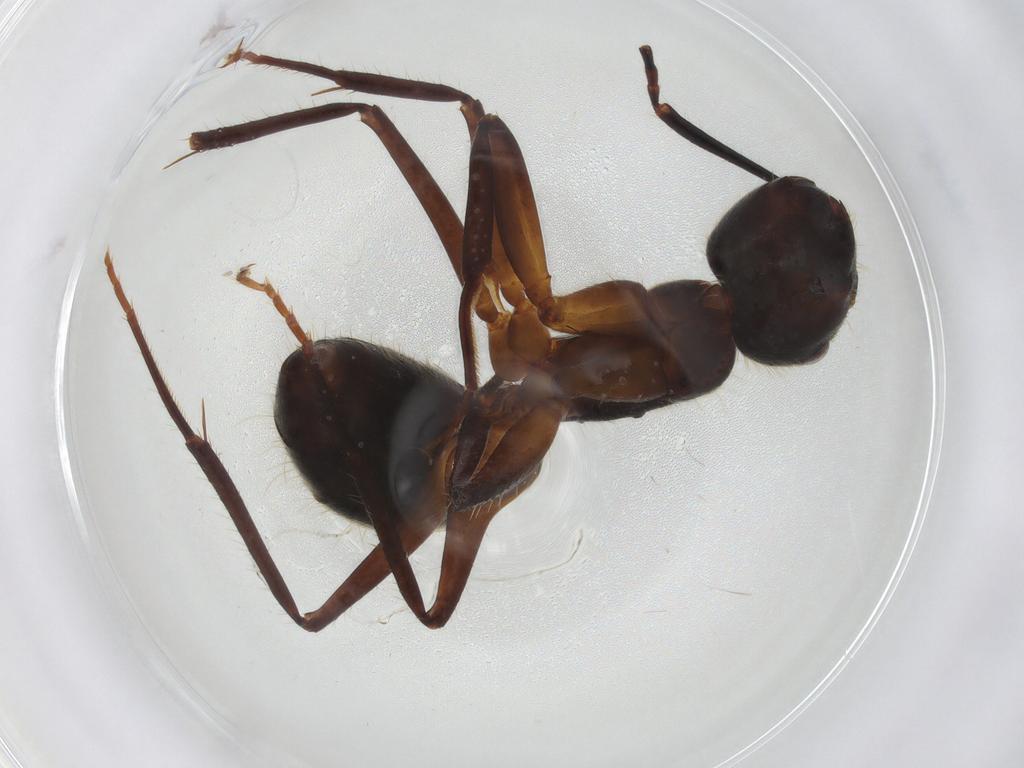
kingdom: Animalia
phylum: Arthropoda
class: Insecta
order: Hymenoptera
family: Formicidae
